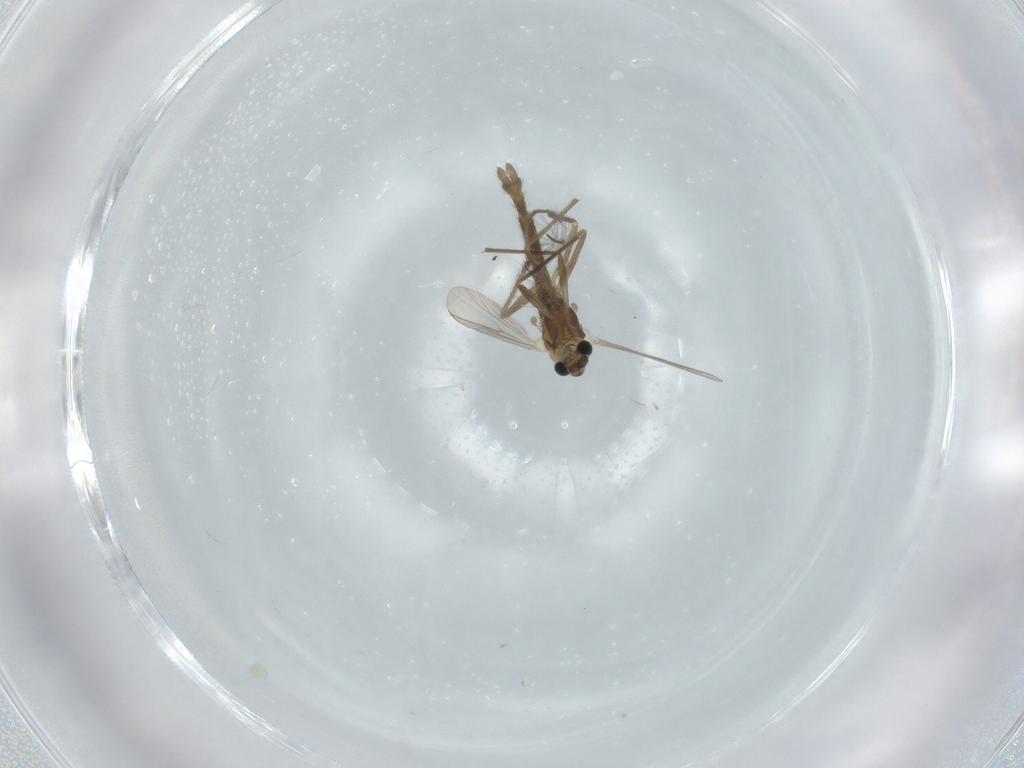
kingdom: Animalia
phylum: Arthropoda
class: Insecta
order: Diptera
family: Chironomidae
